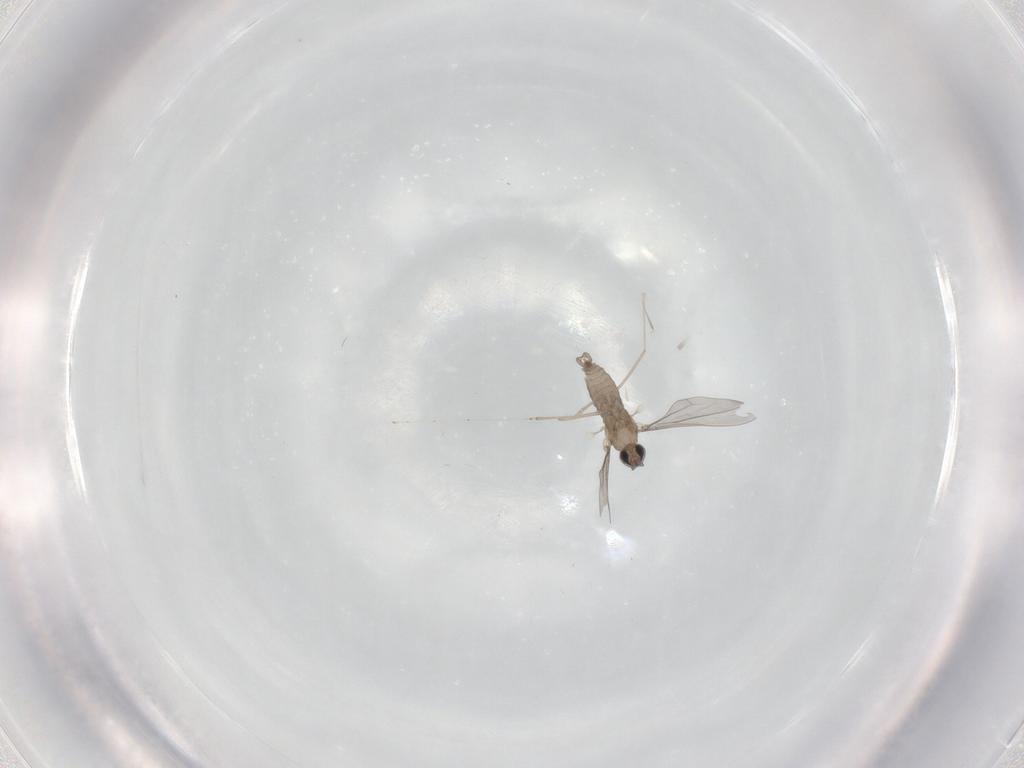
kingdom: Animalia
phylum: Arthropoda
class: Insecta
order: Diptera
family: Cecidomyiidae
